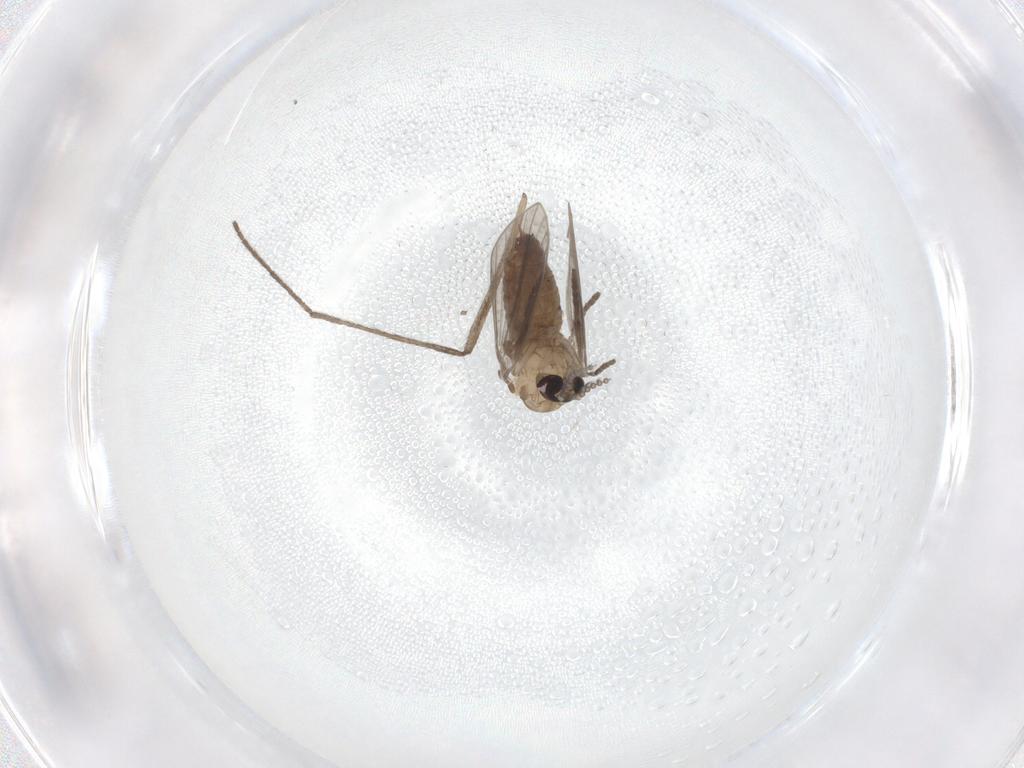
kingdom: Animalia
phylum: Arthropoda
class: Insecta
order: Diptera
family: Psychodidae
